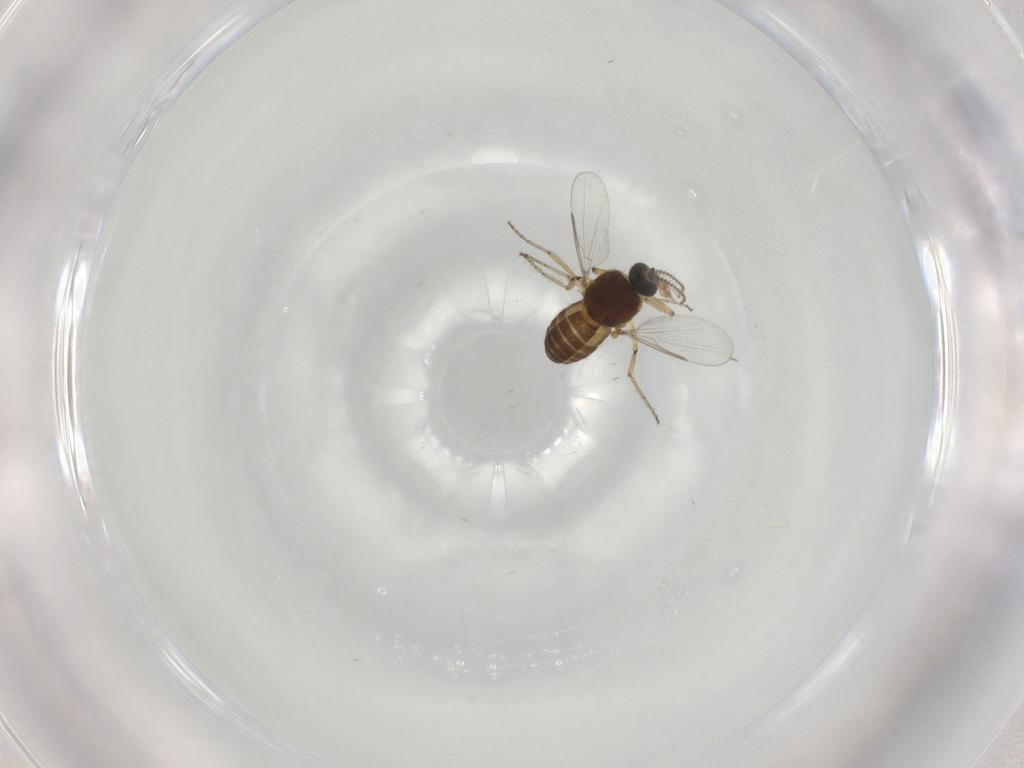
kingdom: Animalia
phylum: Arthropoda
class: Insecta
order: Diptera
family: Ceratopogonidae
